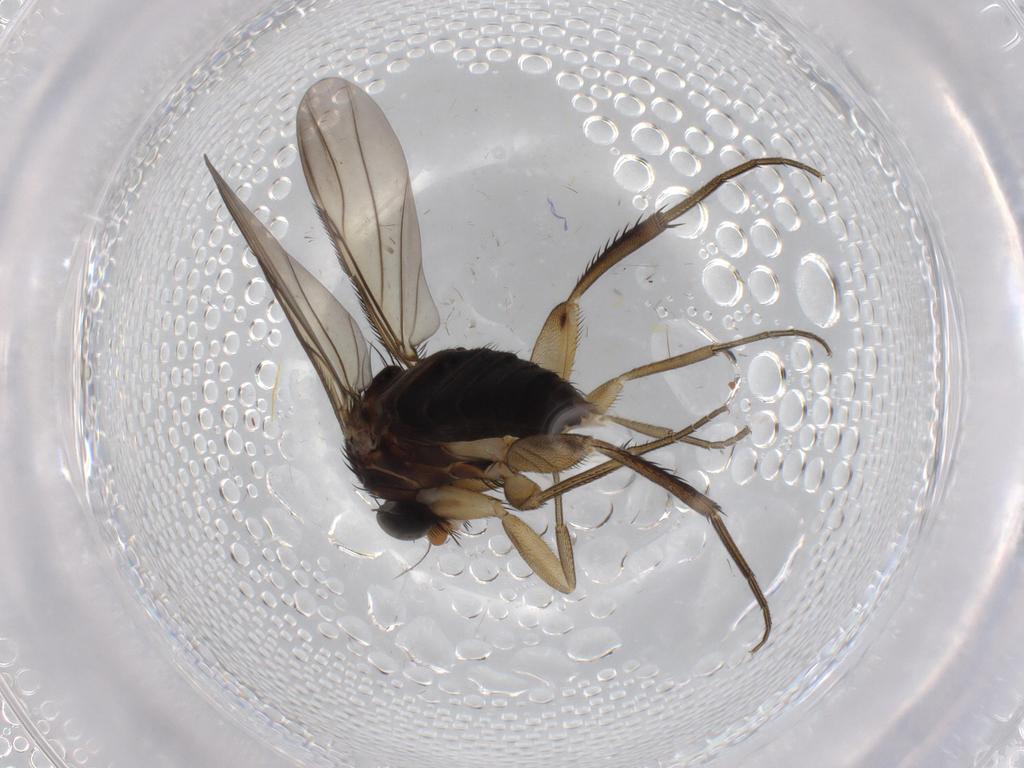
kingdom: Animalia
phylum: Arthropoda
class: Insecta
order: Diptera
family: Phoridae
